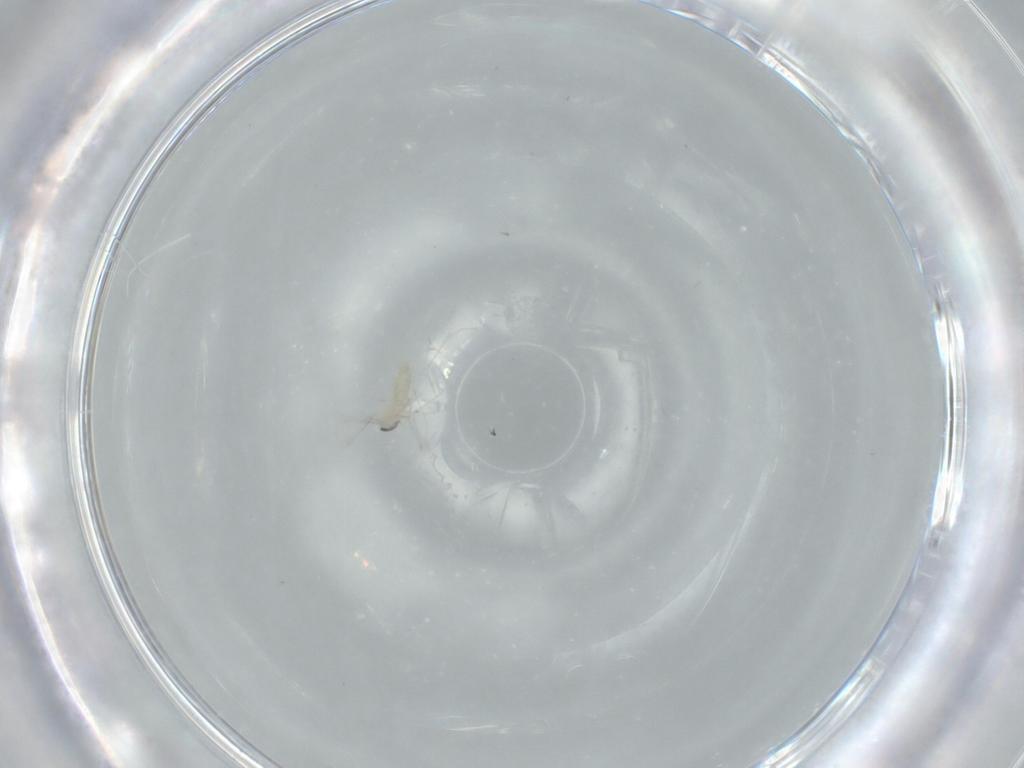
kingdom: Animalia
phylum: Arthropoda
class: Insecta
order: Diptera
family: Cecidomyiidae
